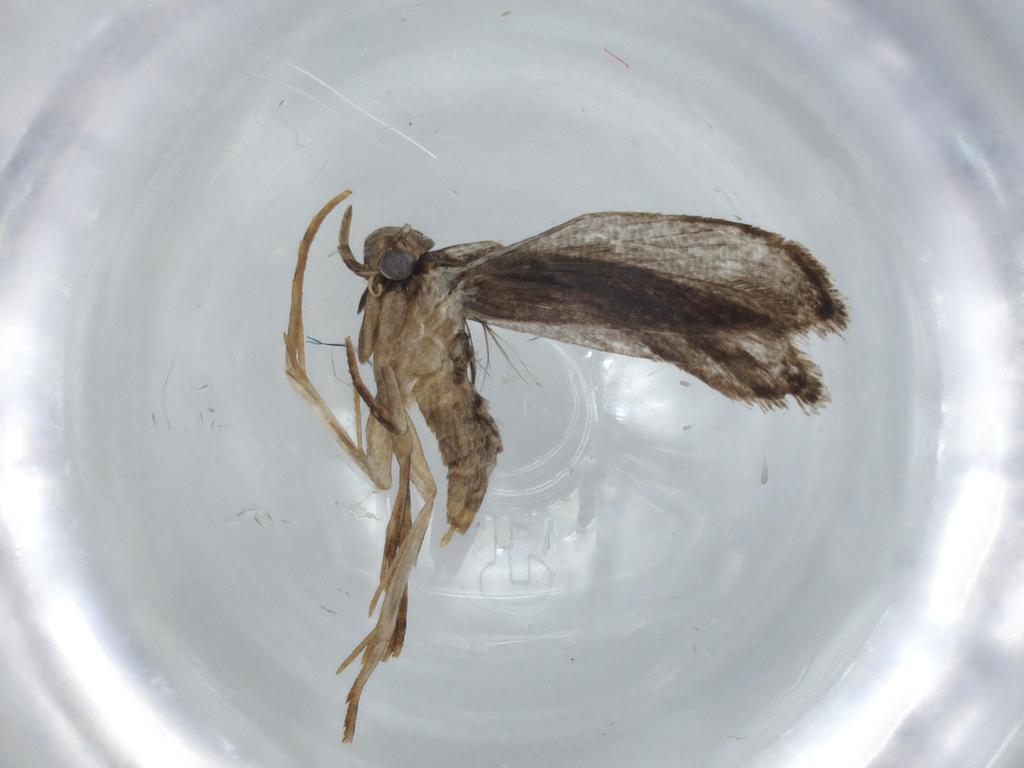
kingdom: Animalia
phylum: Arthropoda
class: Insecta
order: Lepidoptera
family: Tineidae
